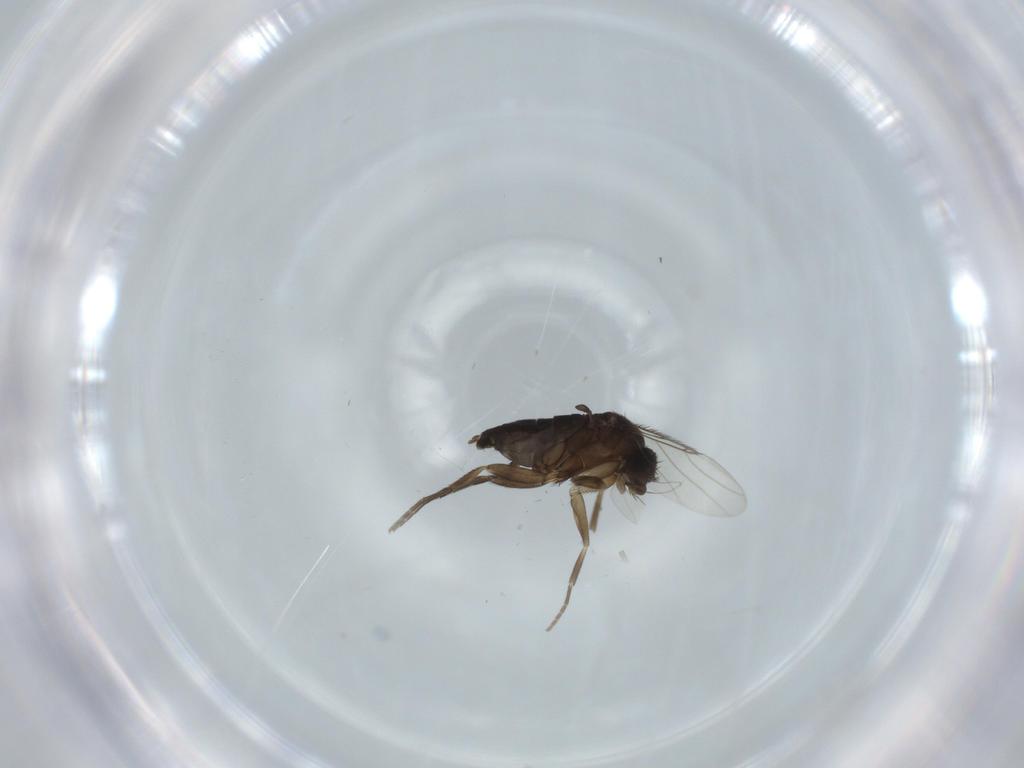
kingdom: Animalia
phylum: Arthropoda
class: Insecta
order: Diptera
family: Phoridae
